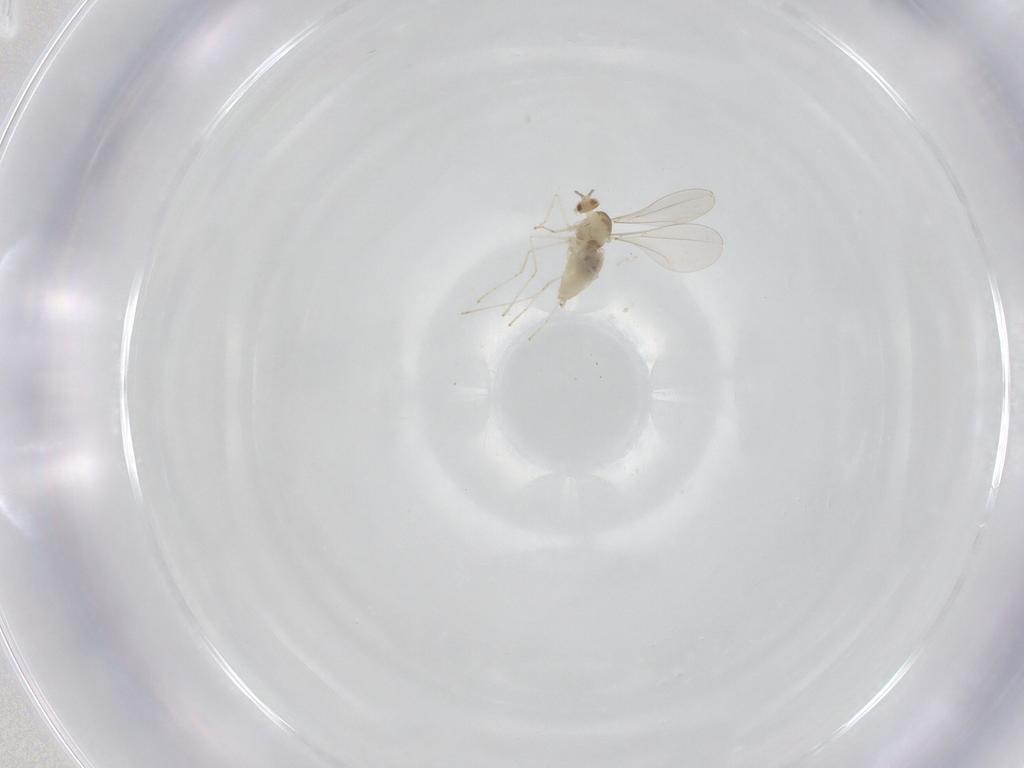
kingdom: Animalia
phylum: Arthropoda
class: Insecta
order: Diptera
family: Cecidomyiidae
